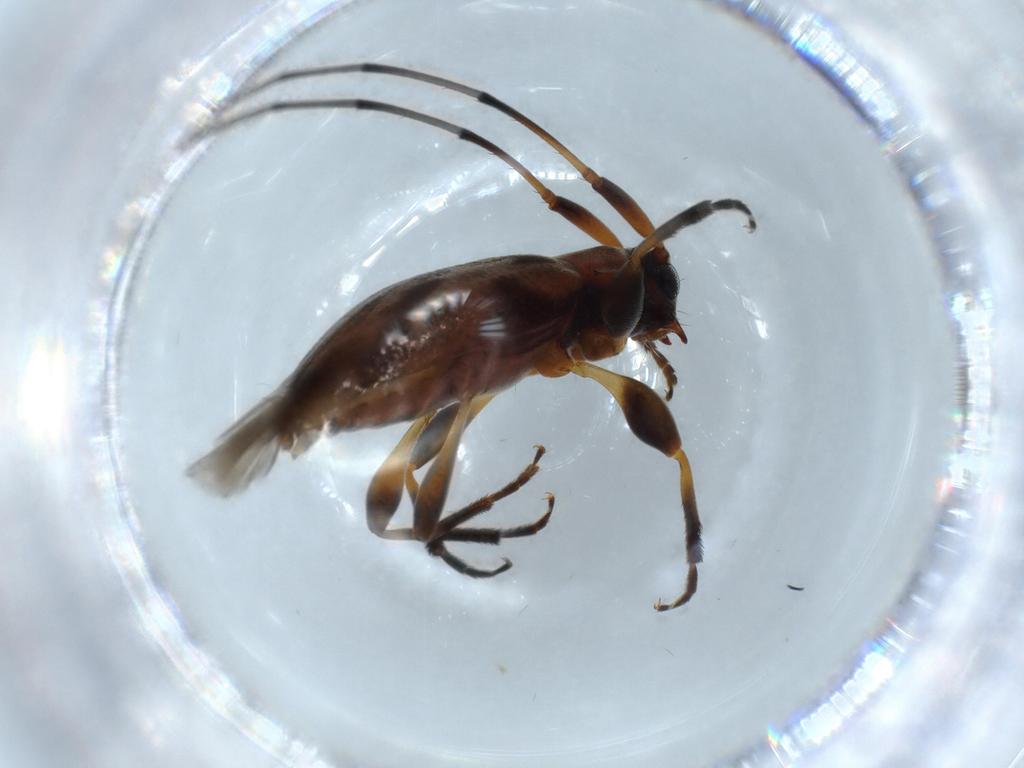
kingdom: Animalia
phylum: Arthropoda
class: Insecta
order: Coleoptera
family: Cerambycidae
